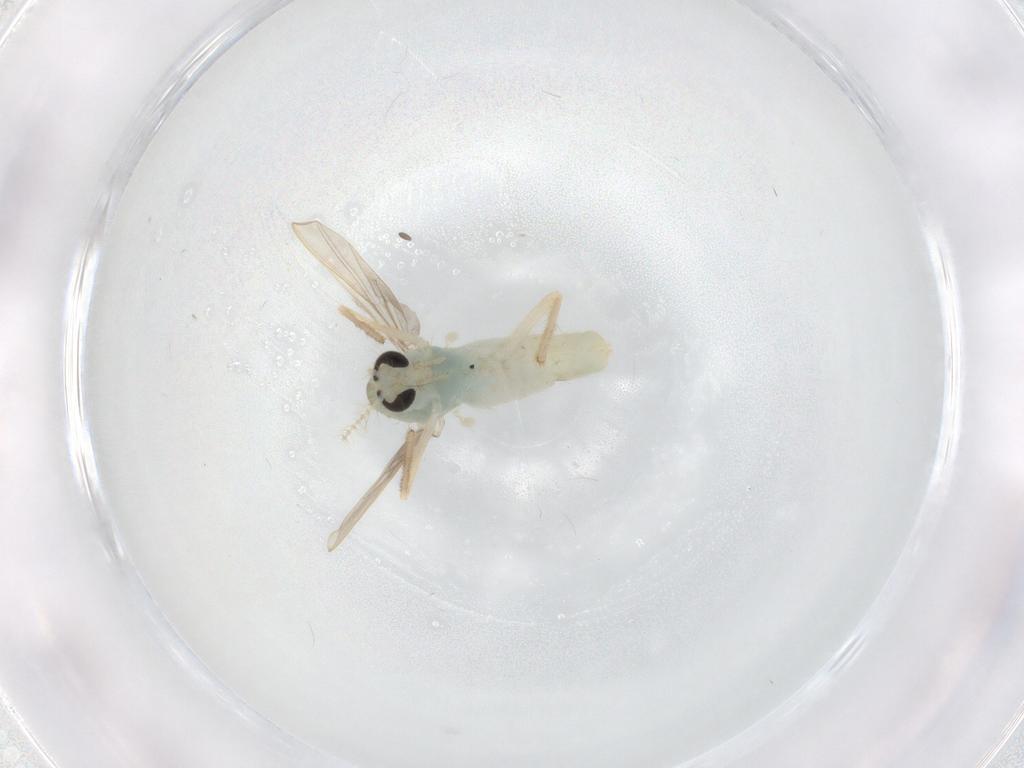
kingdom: Animalia
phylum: Arthropoda
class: Insecta
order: Diptera
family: Chironomidae
